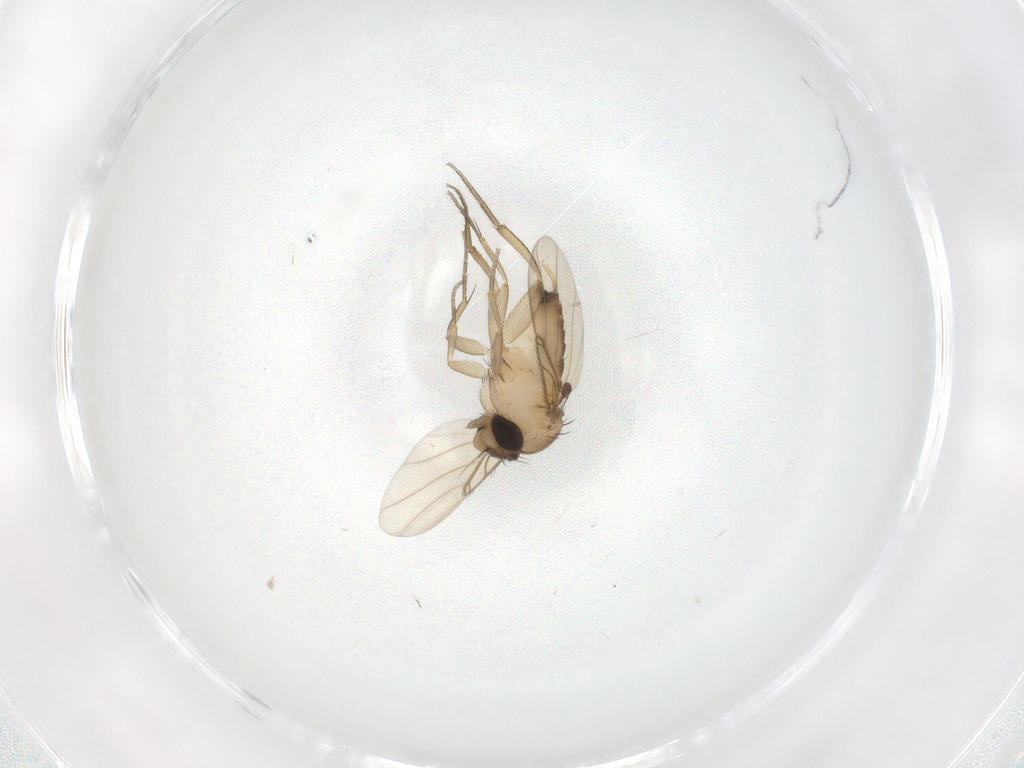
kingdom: Animalia
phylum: Arthropoda
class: Insecta
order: Diptera
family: Phoridae
